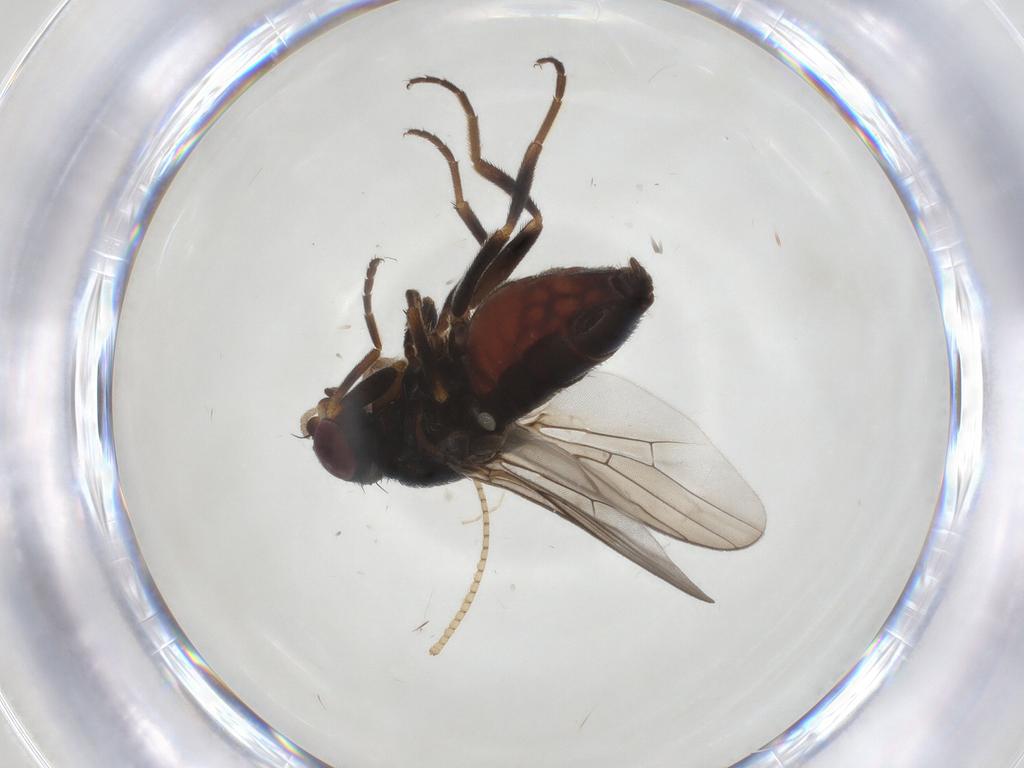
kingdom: Animalia
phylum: Arthropoda
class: Insecta
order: Diptera
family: Chloropidae
